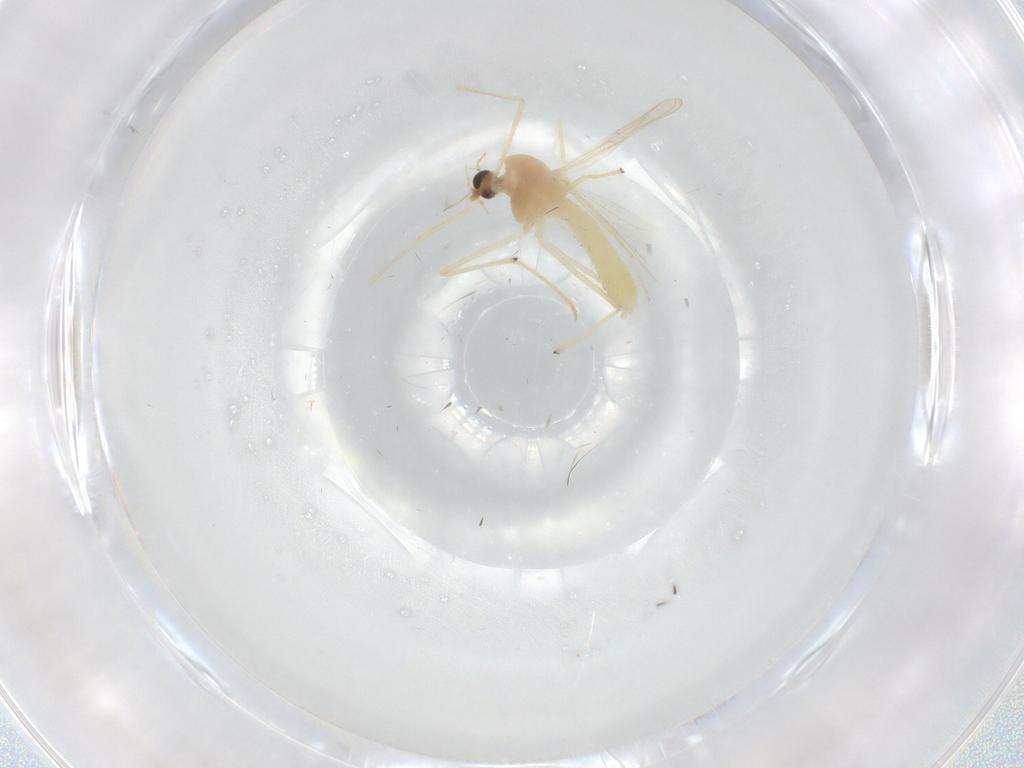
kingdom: Animalia
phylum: Arthropoda
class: Insecta
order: Diptera
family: Chironomidae
